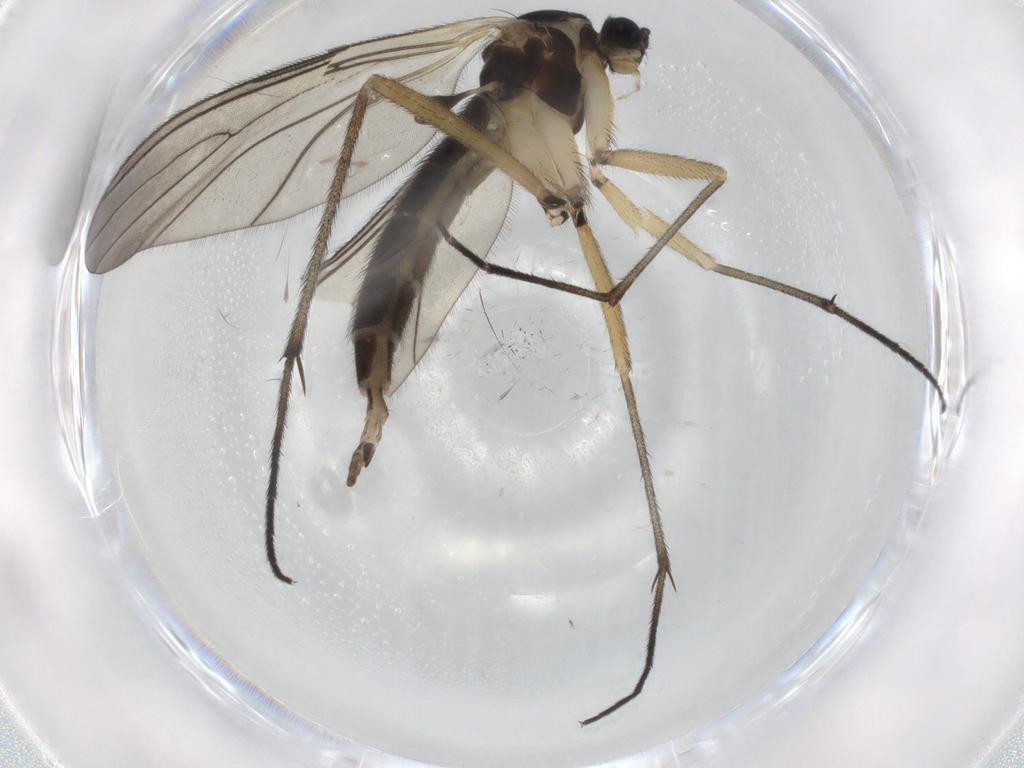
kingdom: Animalia
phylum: Arthropoda
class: Insecta
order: Diptera
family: Sciaridae
